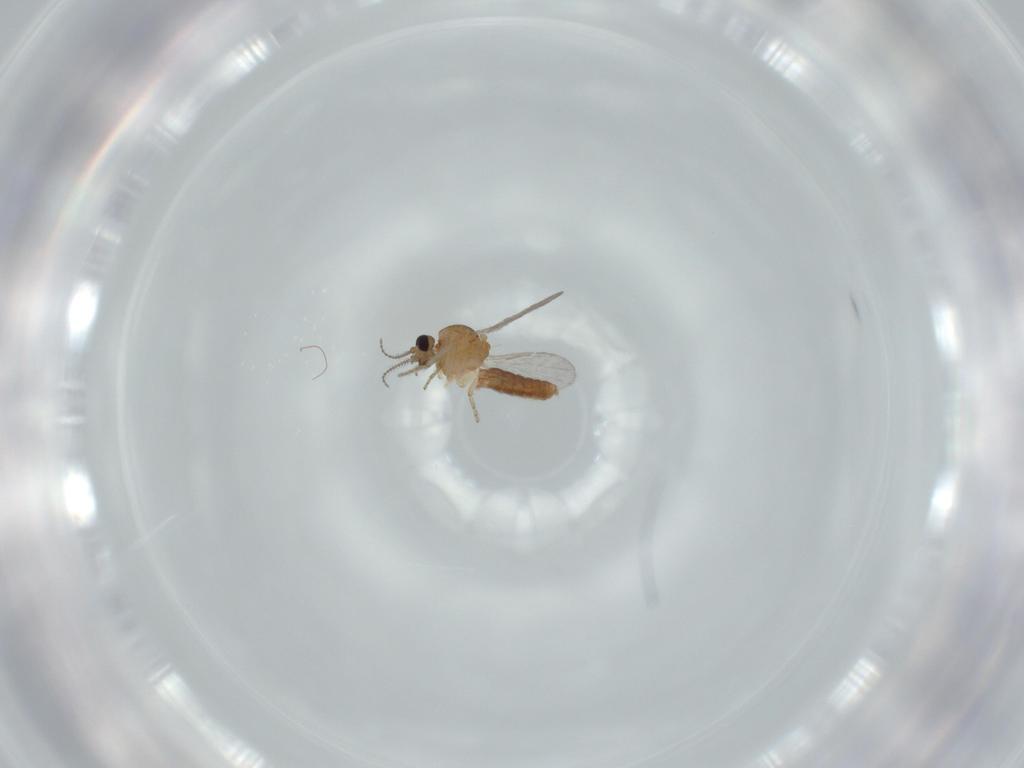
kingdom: Animalia
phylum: Arthropoda
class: Insecta
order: Diptera
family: Ceratopogonidae
